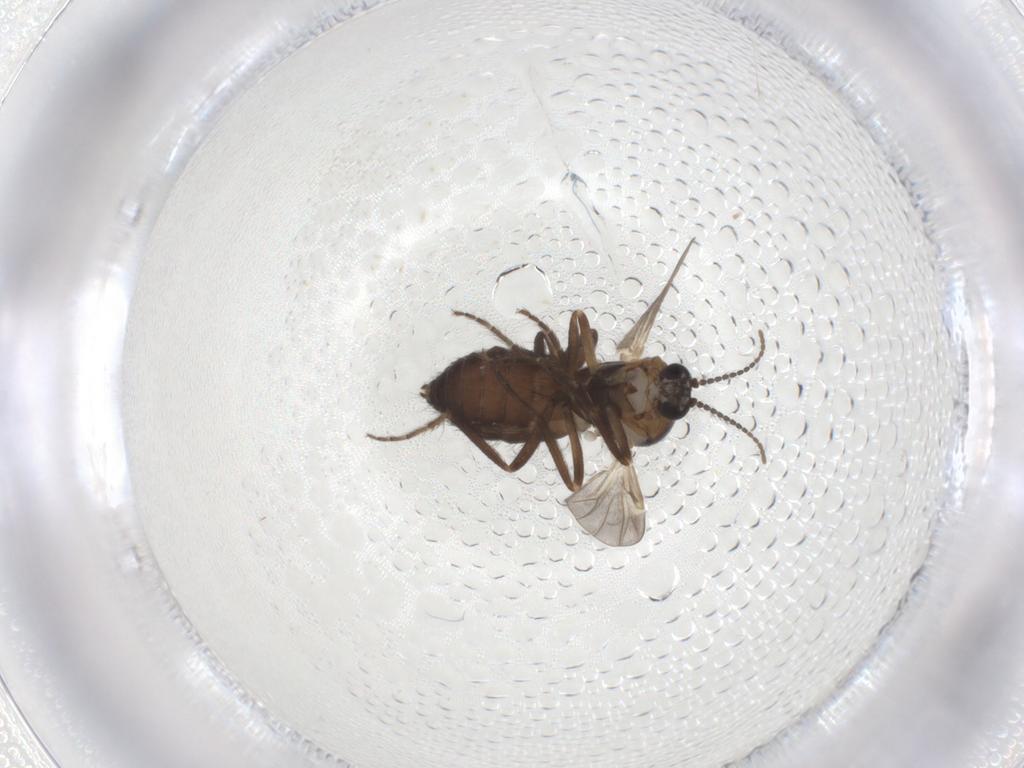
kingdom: Animalia
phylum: Arthropoda
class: Insecta
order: Diptera
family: Ceratopogonidae
